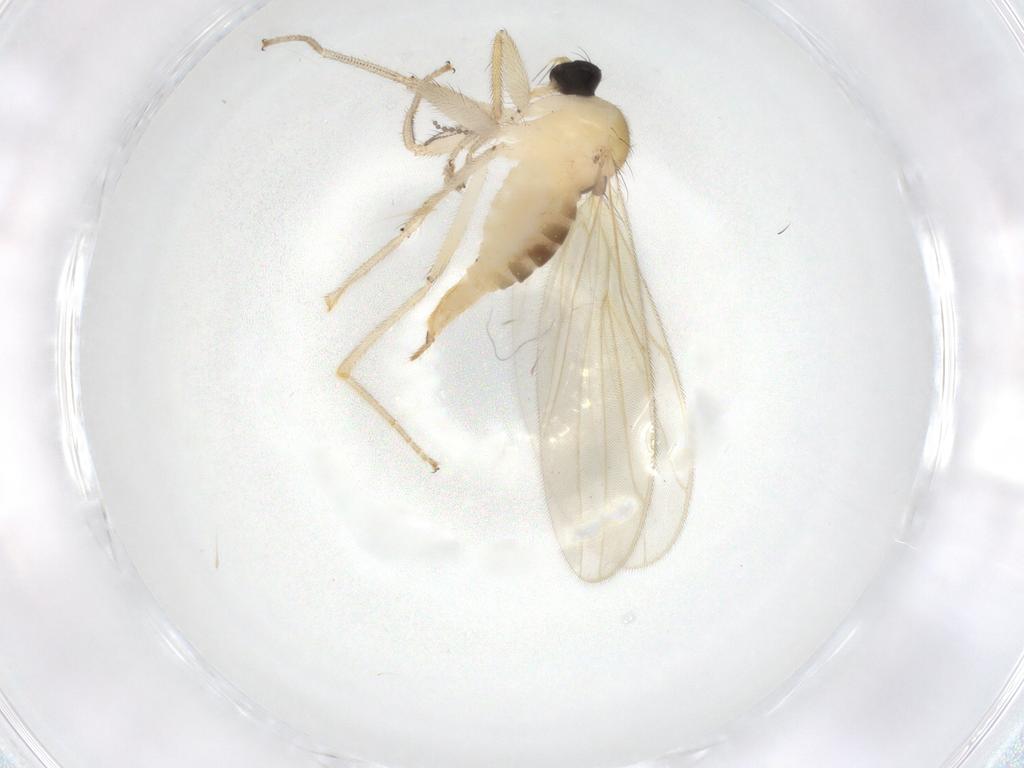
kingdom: Animalia
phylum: Arthropoda
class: Insecta
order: Diptera
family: Hybotidae
